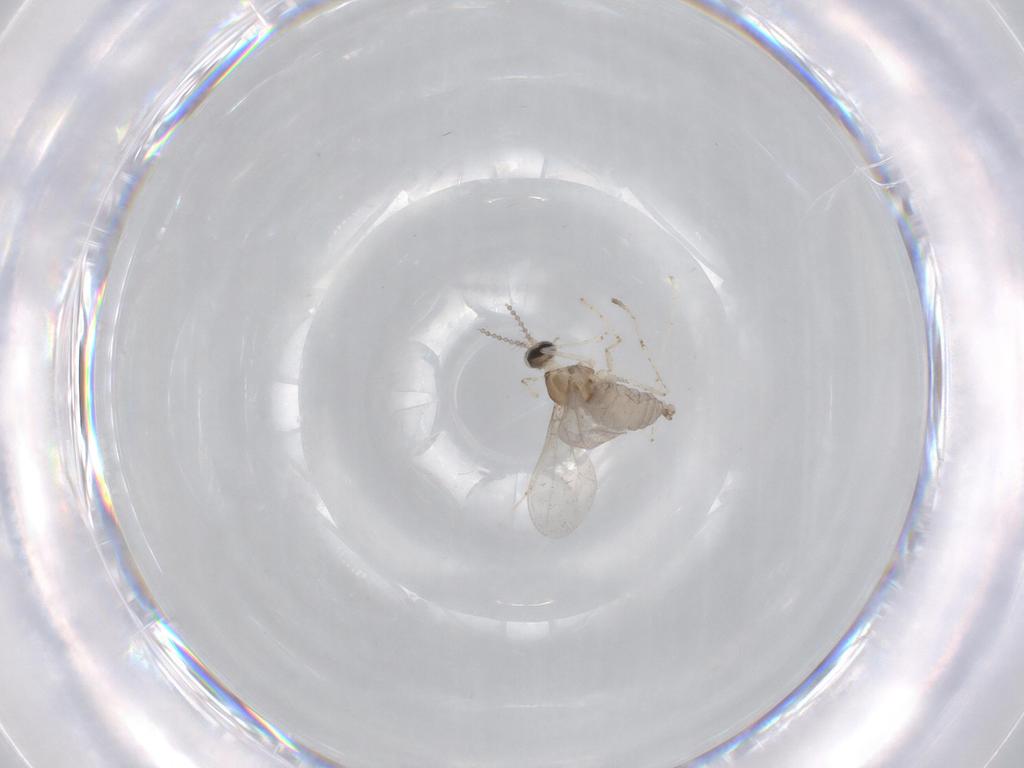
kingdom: Animalia
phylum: Arthropoda
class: Insecta
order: Diptera
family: Cecidomyiidae
